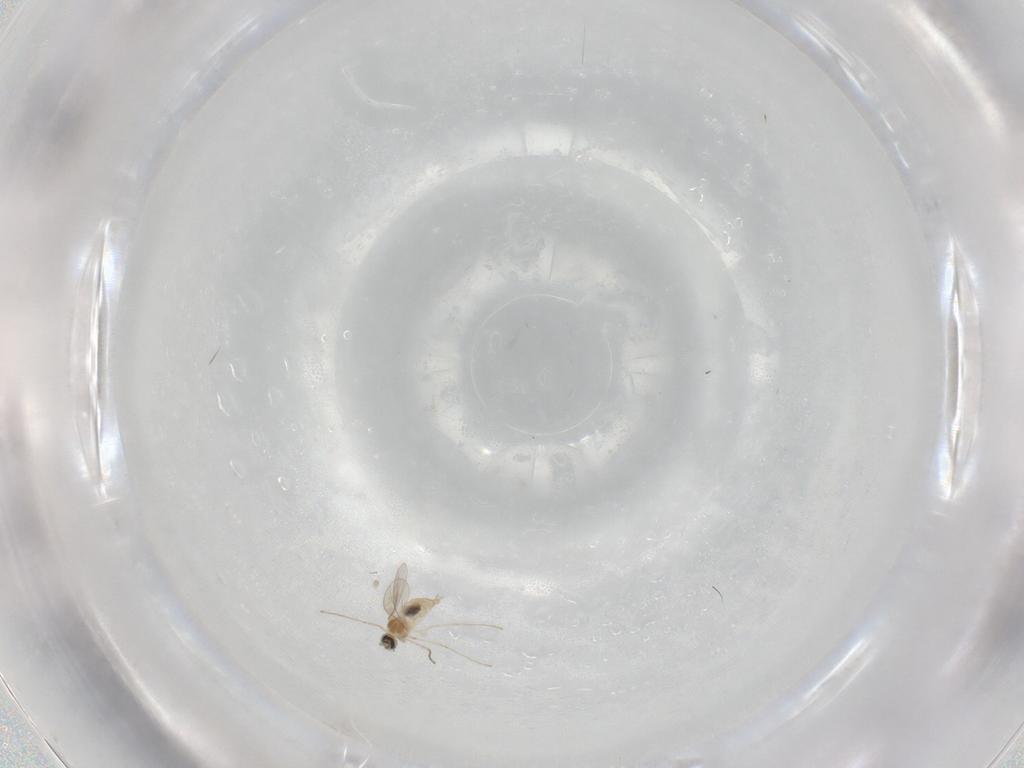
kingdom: Animalia
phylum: Arthropoda
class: Insecta
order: Diptera
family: Cecidomyiidae
